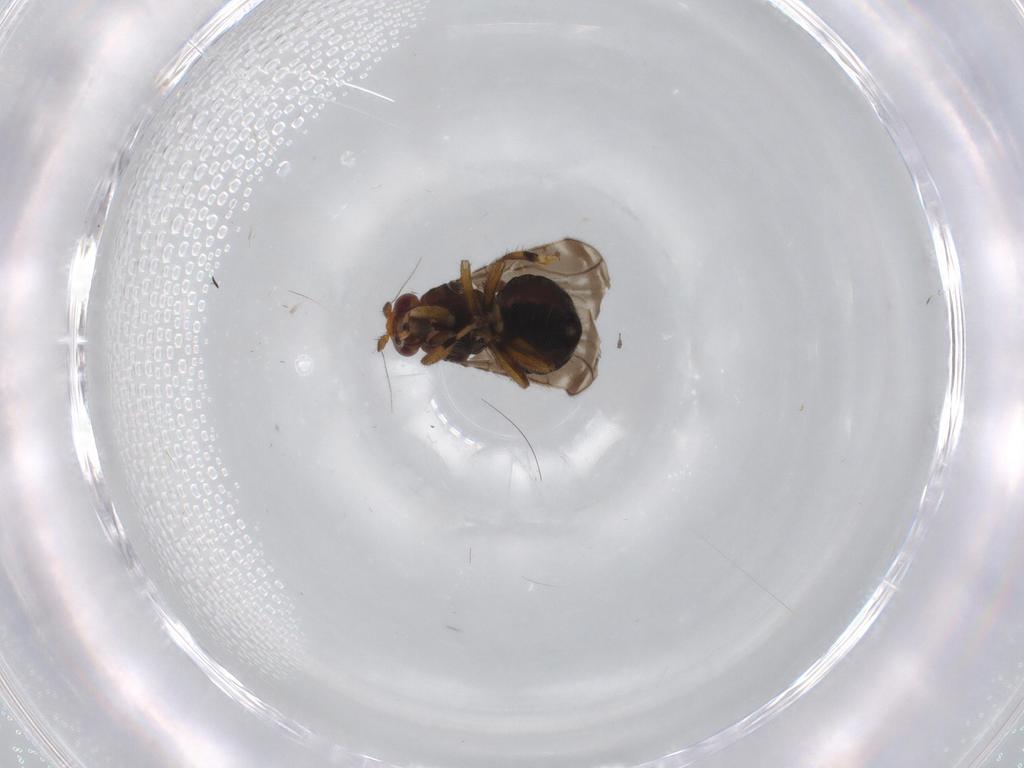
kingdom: Animalia
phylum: Arthropoda
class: Insecta
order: Diptera
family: Sphaeroceridae
